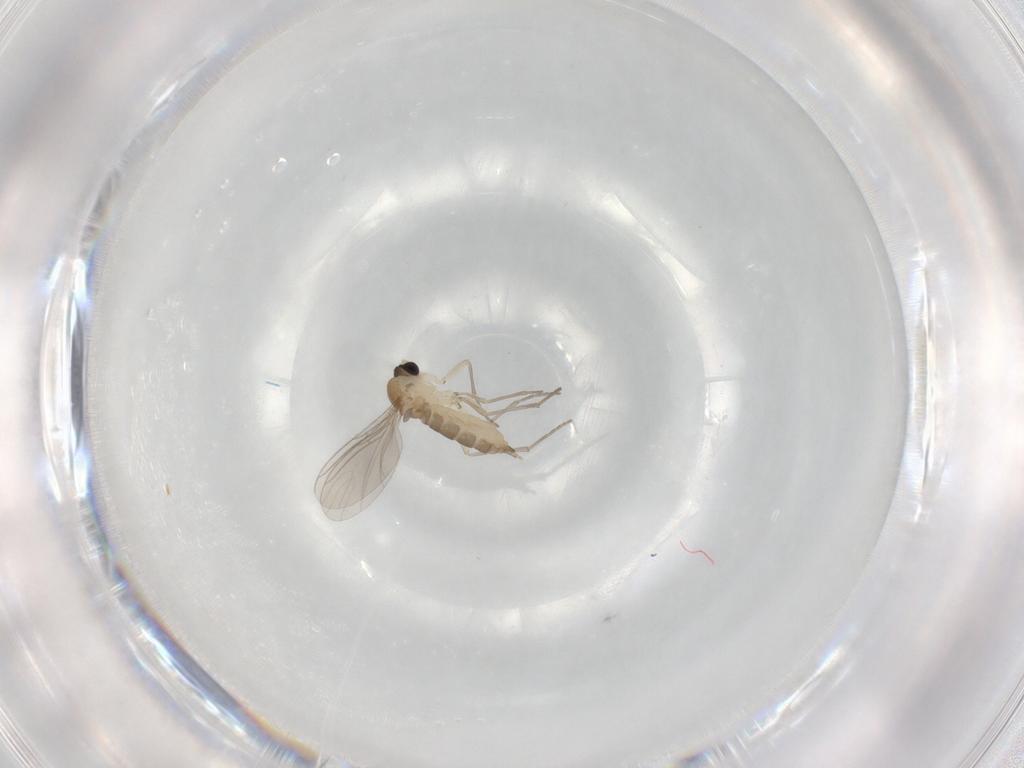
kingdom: Animalia
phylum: Arthropoda
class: Insecta
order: Diptera
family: Sciaridae
